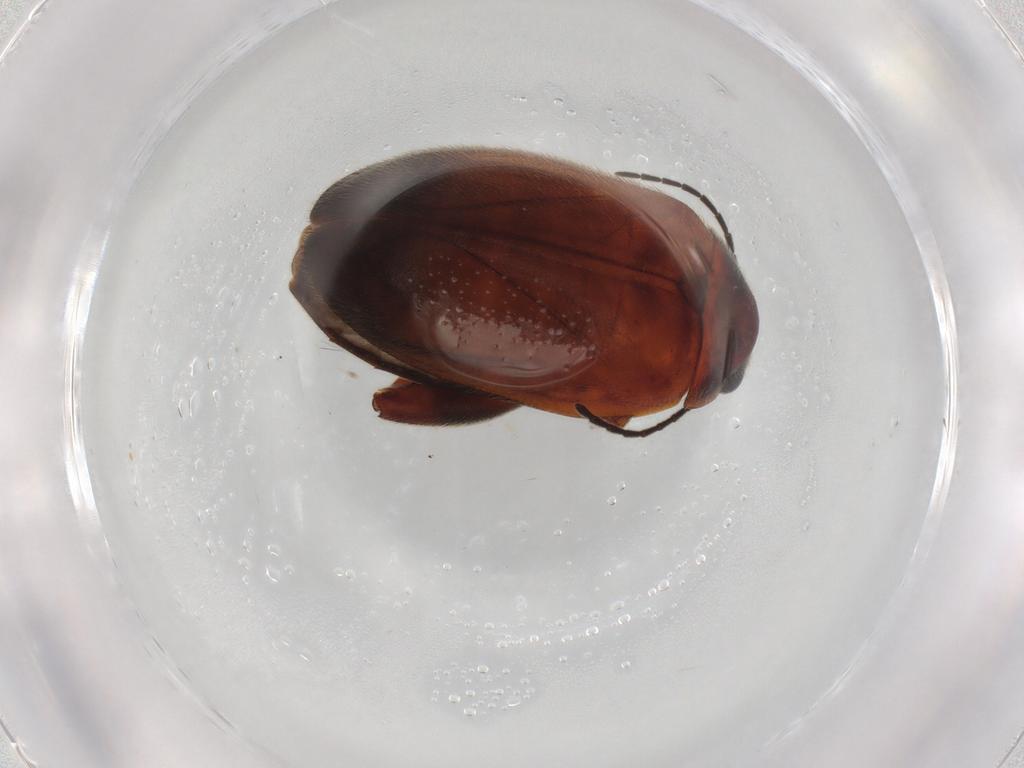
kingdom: Animalia
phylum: Arthropoda
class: Insecta
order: Coleoptera
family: Scirtidae
